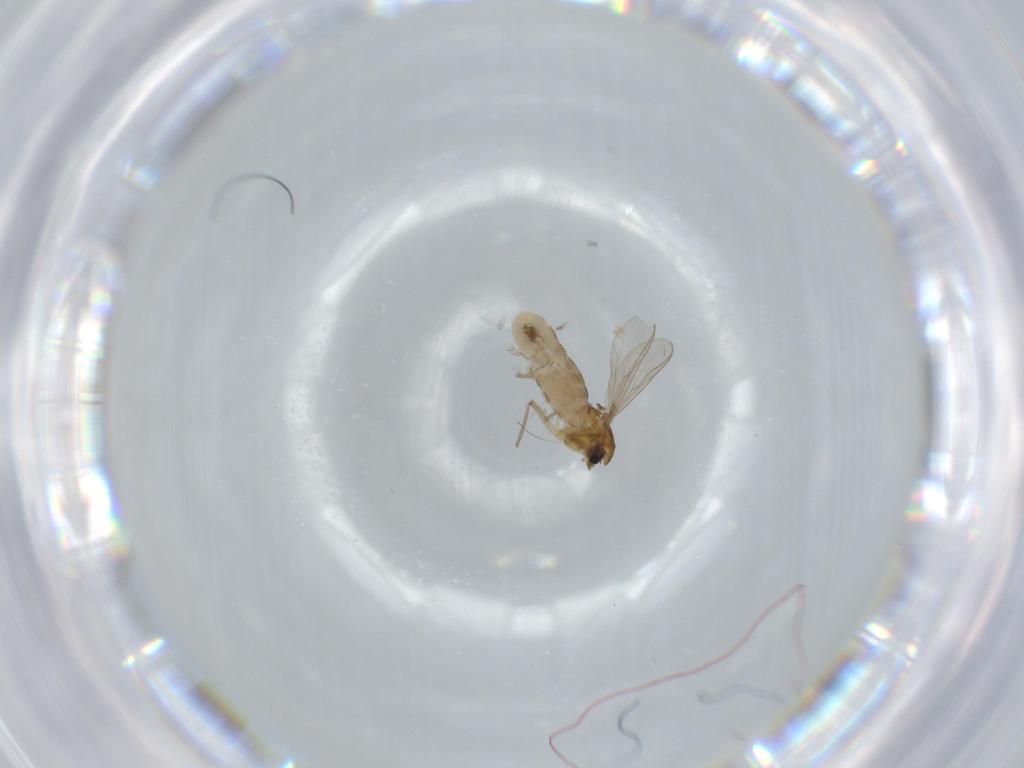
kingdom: Animalia
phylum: Arthropoda
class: Insecta
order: Diptera
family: Chironomidae
